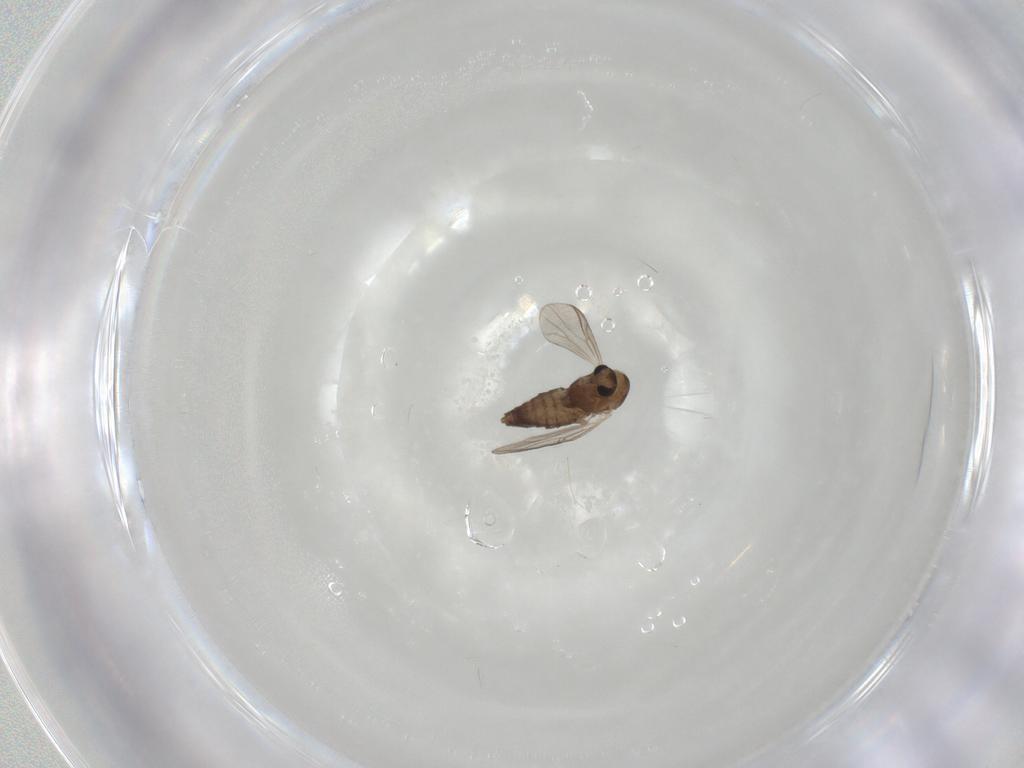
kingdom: Animalia
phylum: Arthropoda
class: Insecta
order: Diptera
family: Chironomidae
